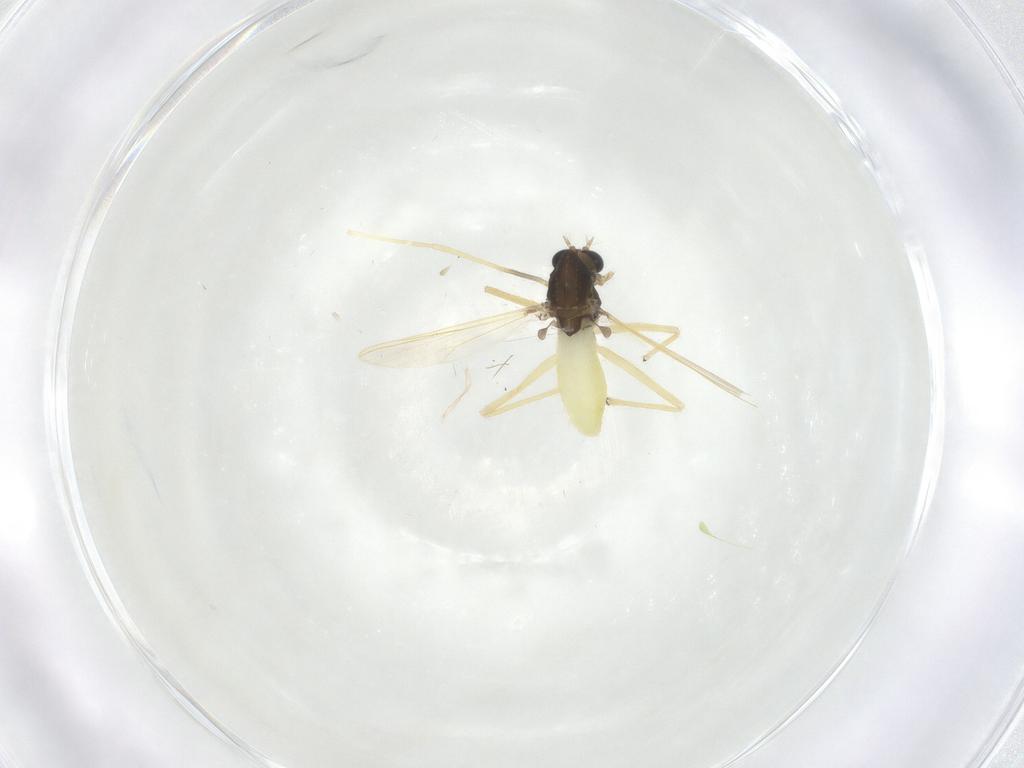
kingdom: Animalia
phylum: Arthropoda
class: Insecta
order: Diptera
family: Chironomidae
